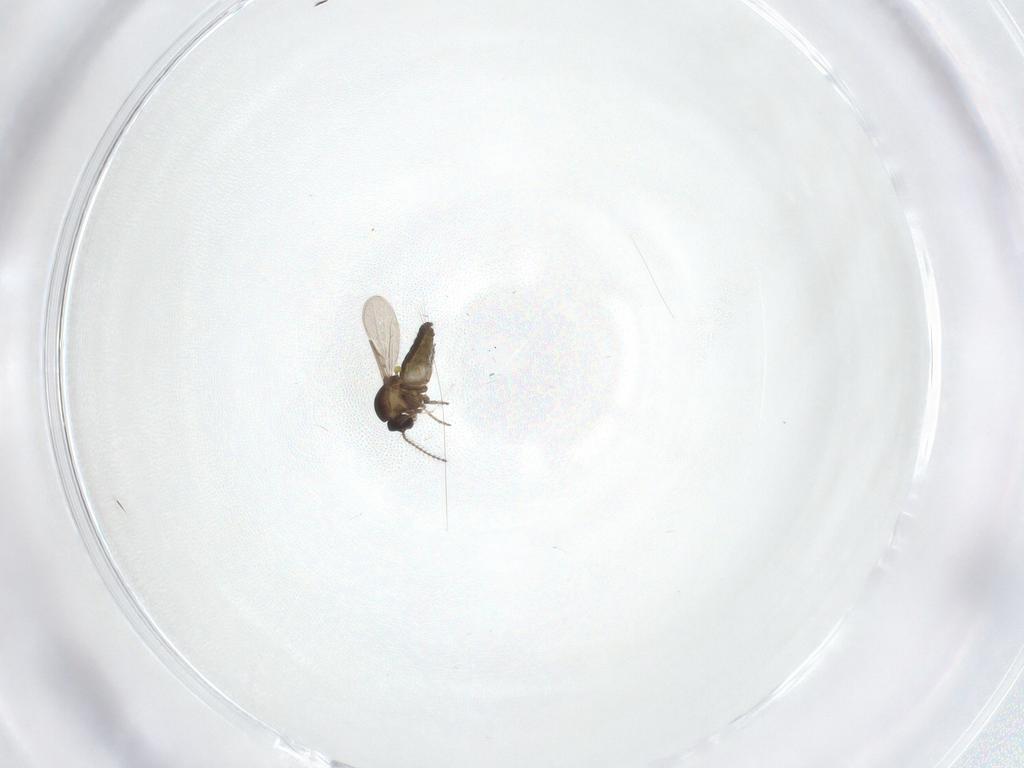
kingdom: Animalia
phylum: Arthropoda
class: Insecta
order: Diptera
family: Ceratopogonidae
